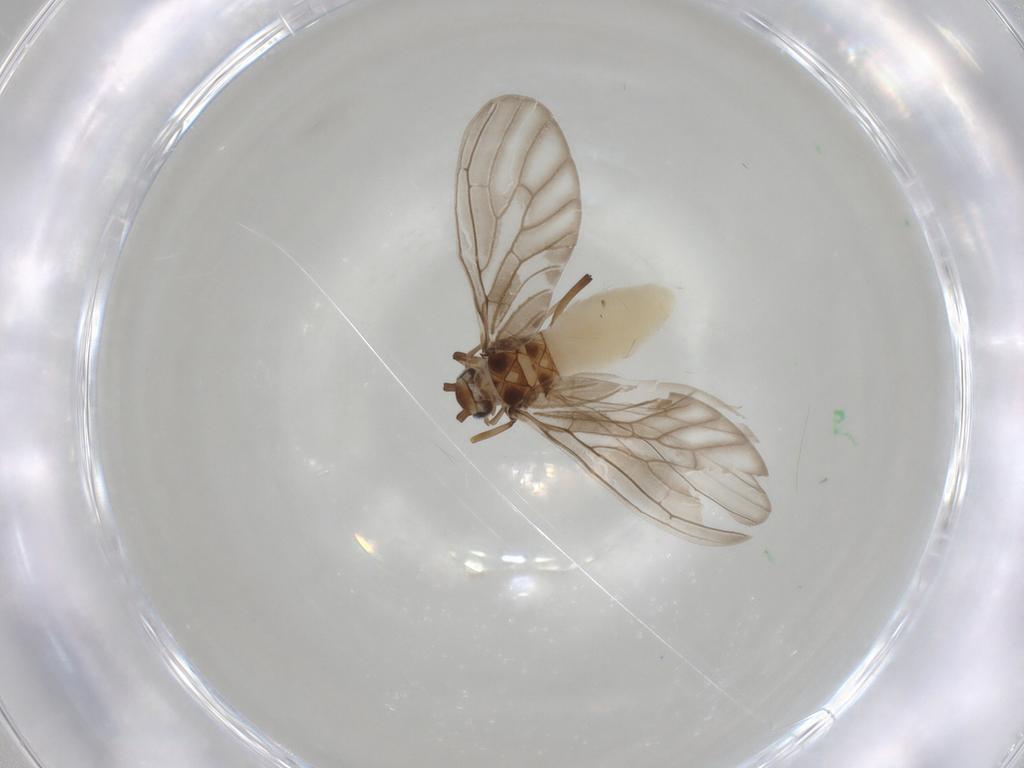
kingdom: Animalia
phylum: Arthropoda
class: Insecta
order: Neuroptera
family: Coniopterygidae
